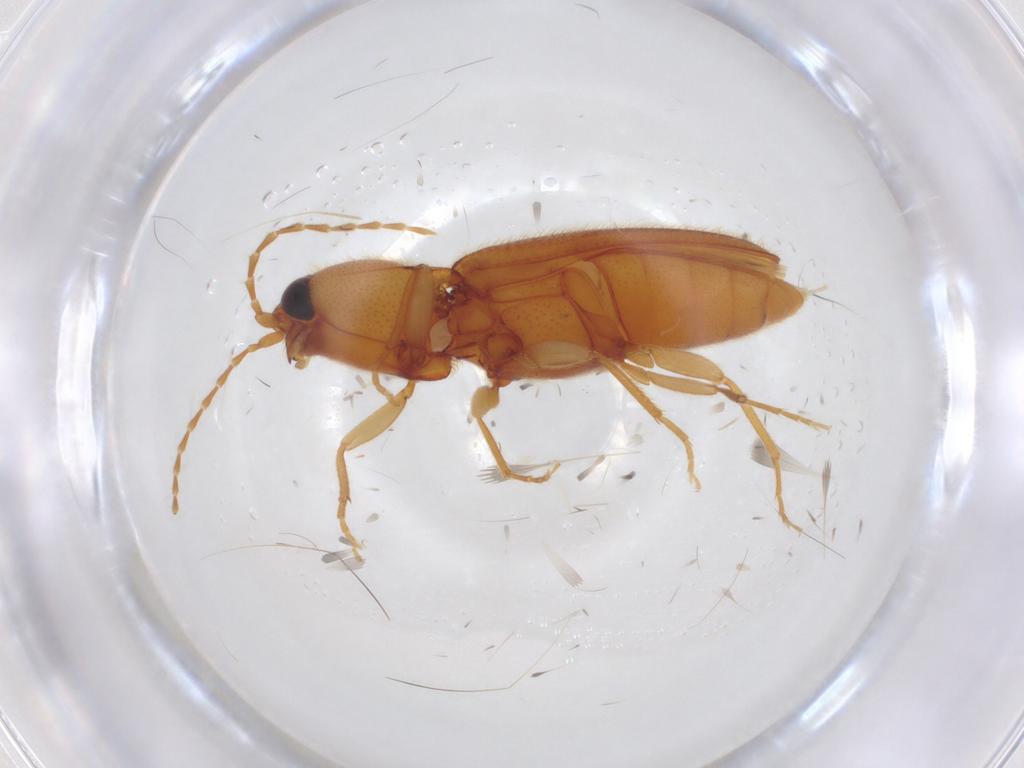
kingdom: Animalia
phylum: Arthropoda
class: Insecta
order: Coleoptera
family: Elateridae
